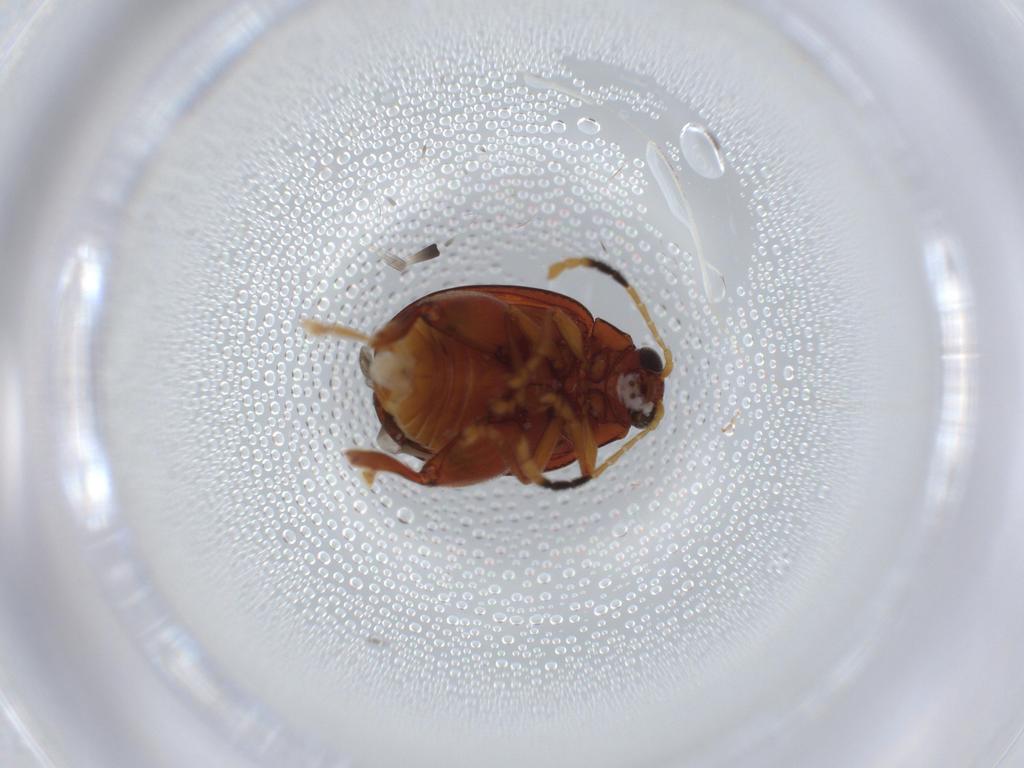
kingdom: Animalia
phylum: Arthropoda
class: Insecta
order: Coleoptera
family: Chrysomelidae
